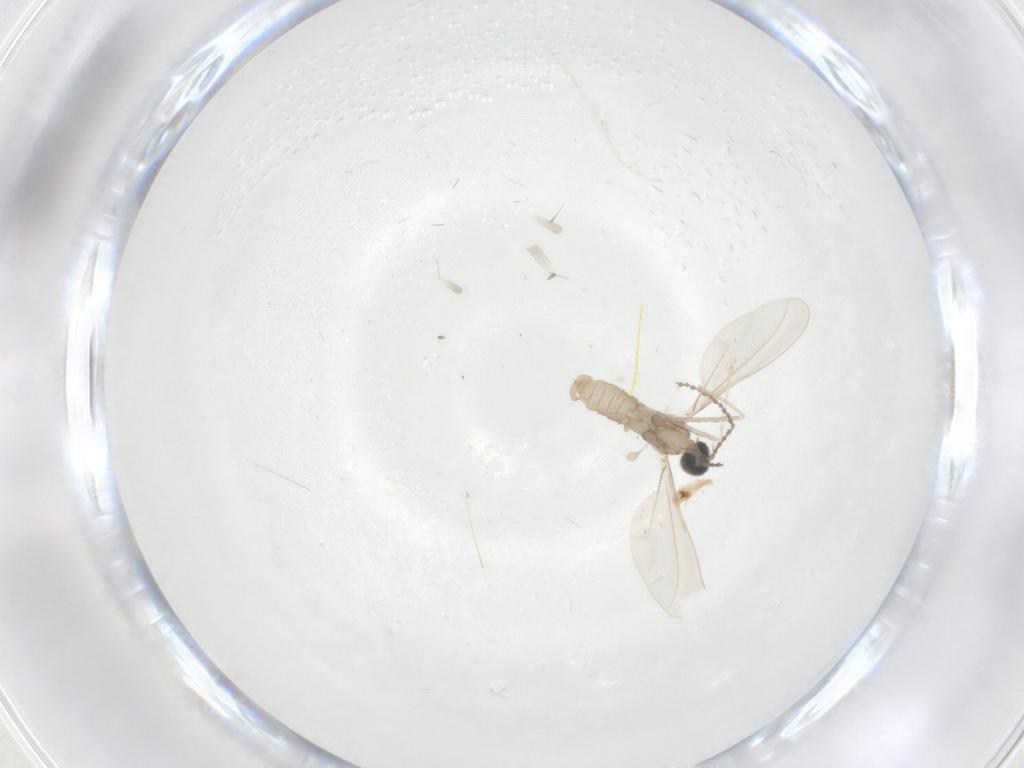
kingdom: Animalia
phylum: Arthropoda
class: Insecta
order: Diptera
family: Cecidomyiidae
